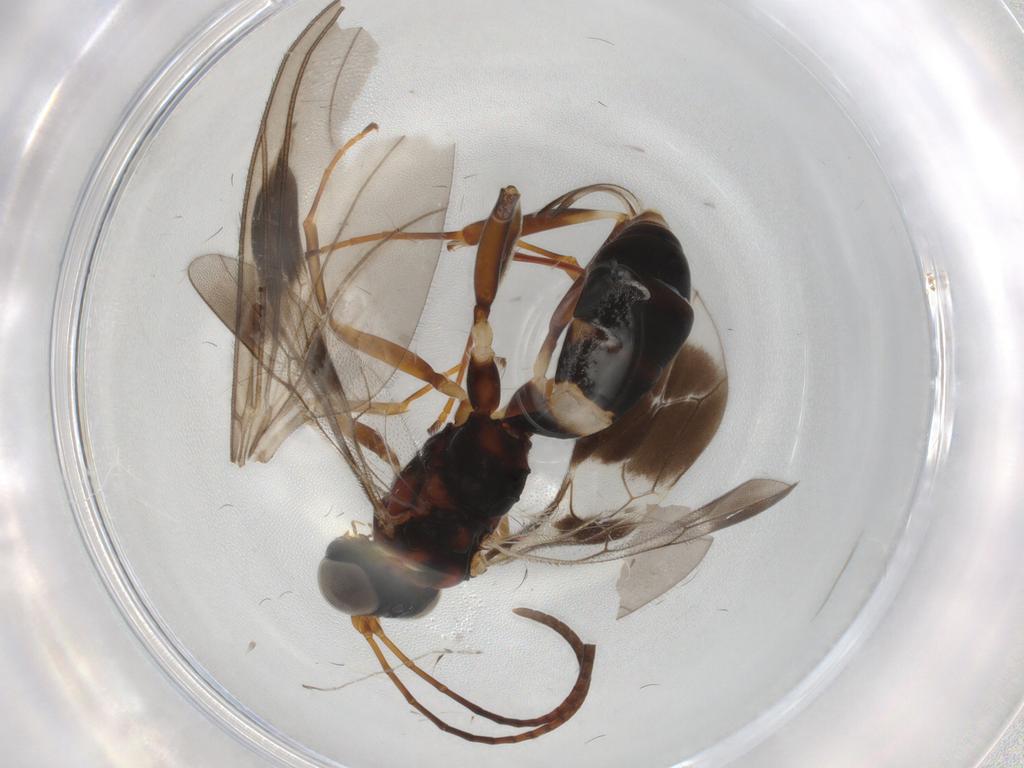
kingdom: Animalia
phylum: Arthropoda
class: Insecta
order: Hymenoptera
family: Ichneumonidae
